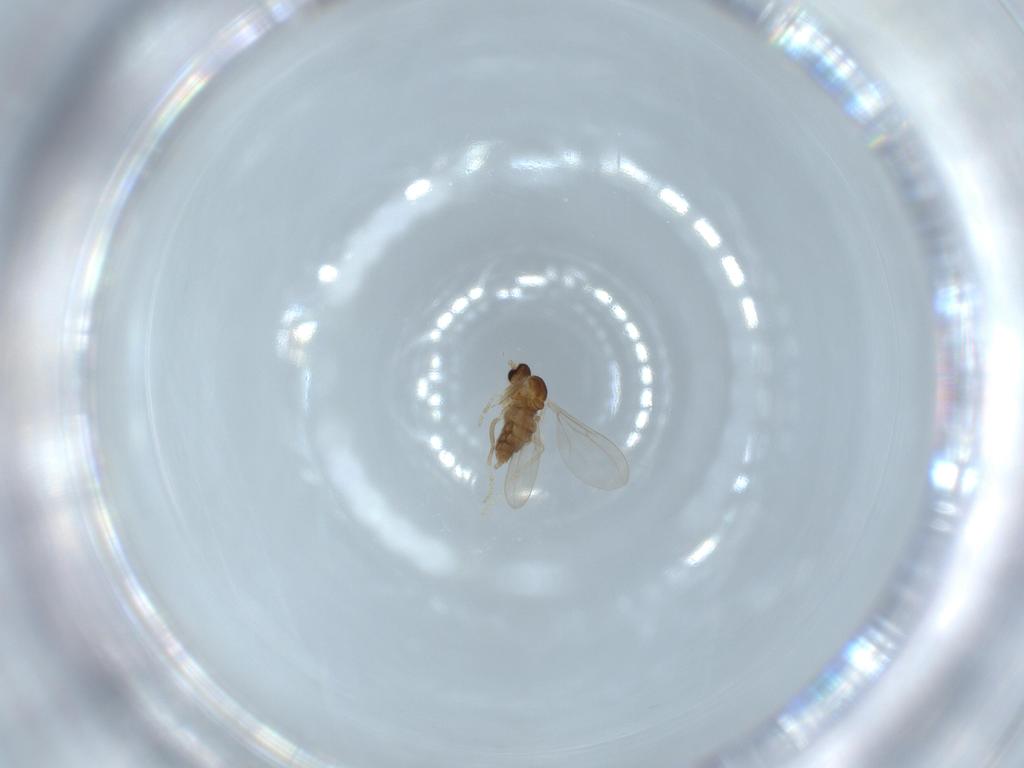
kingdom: Animalia
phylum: Arthropoda
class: Insecta
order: Diptera
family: Cecidomyiidae
